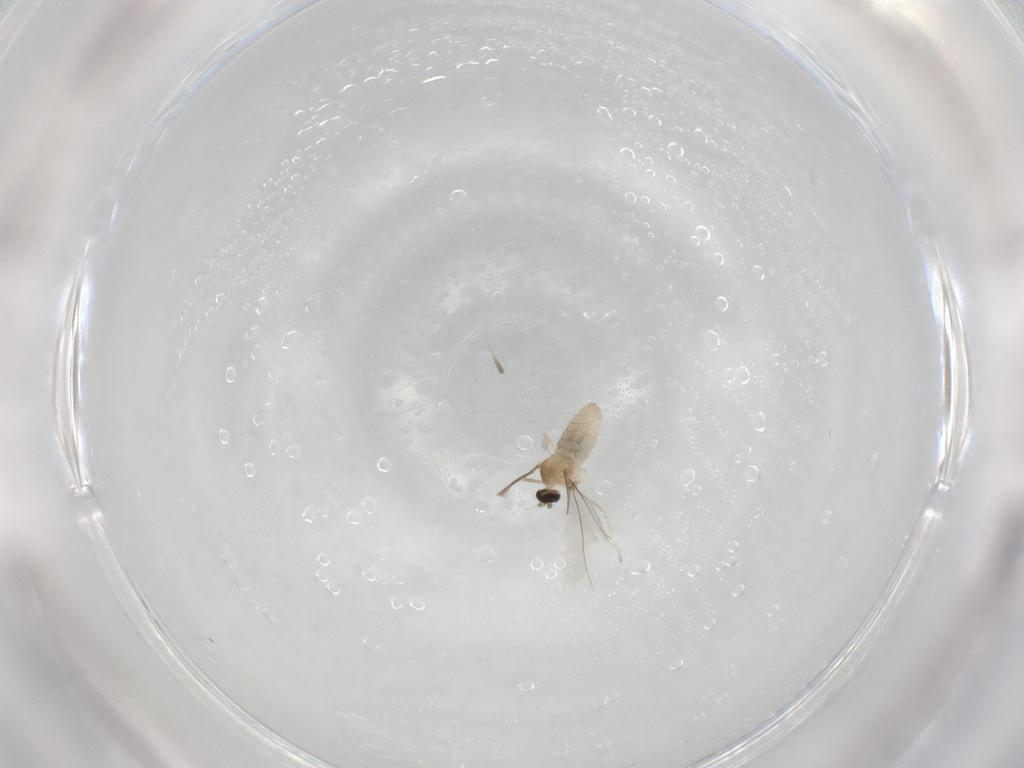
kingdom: Animalia
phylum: Arthropoda
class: Insecta
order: Diptera
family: Cecidomyiidae
